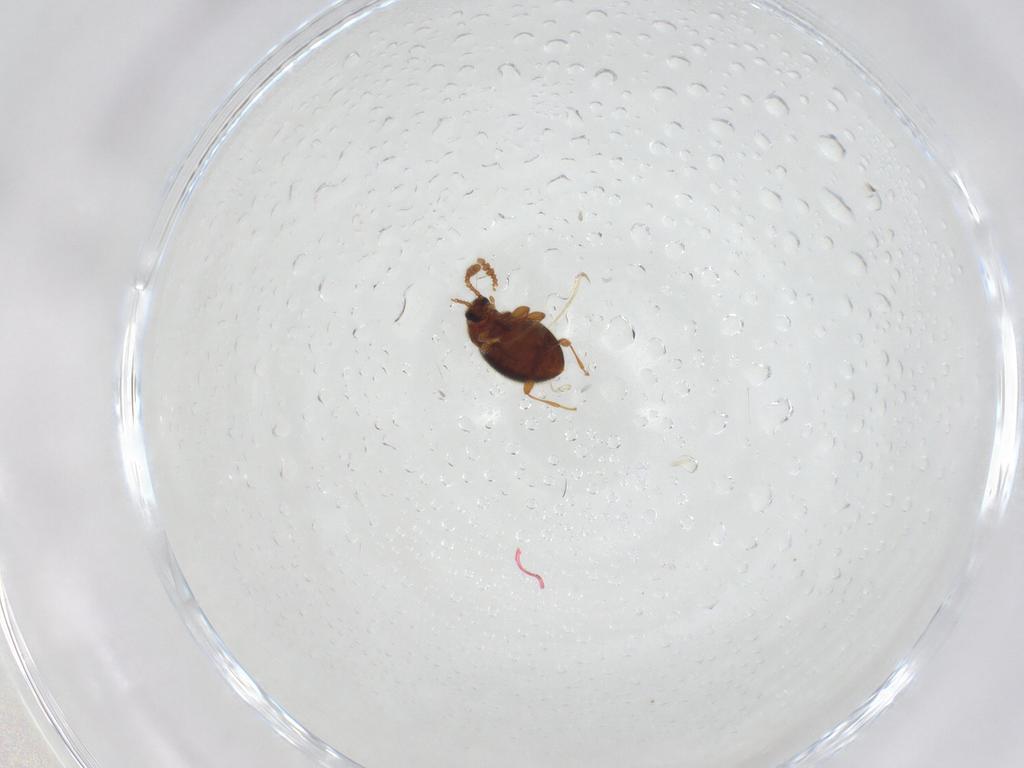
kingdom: Animalia
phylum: Arthropoda
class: Insecta
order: Coleoptera
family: Staphylinidae
